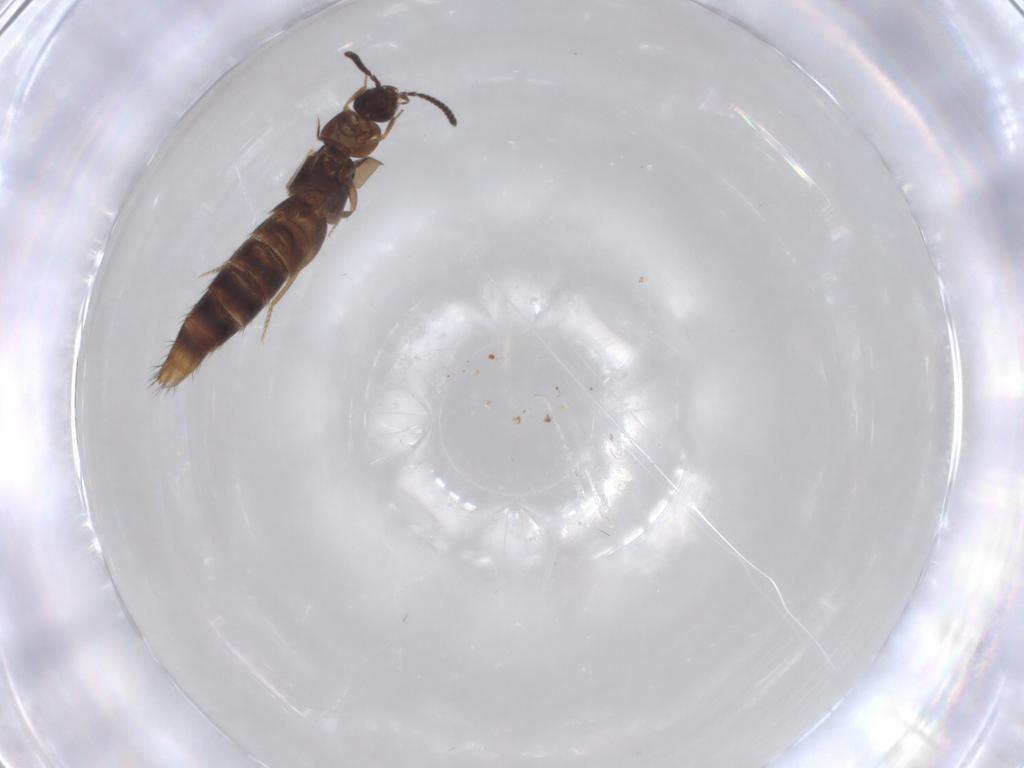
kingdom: Animalia
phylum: Arthropoda
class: Insecta
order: Coleoptera
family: Staphylinidae
